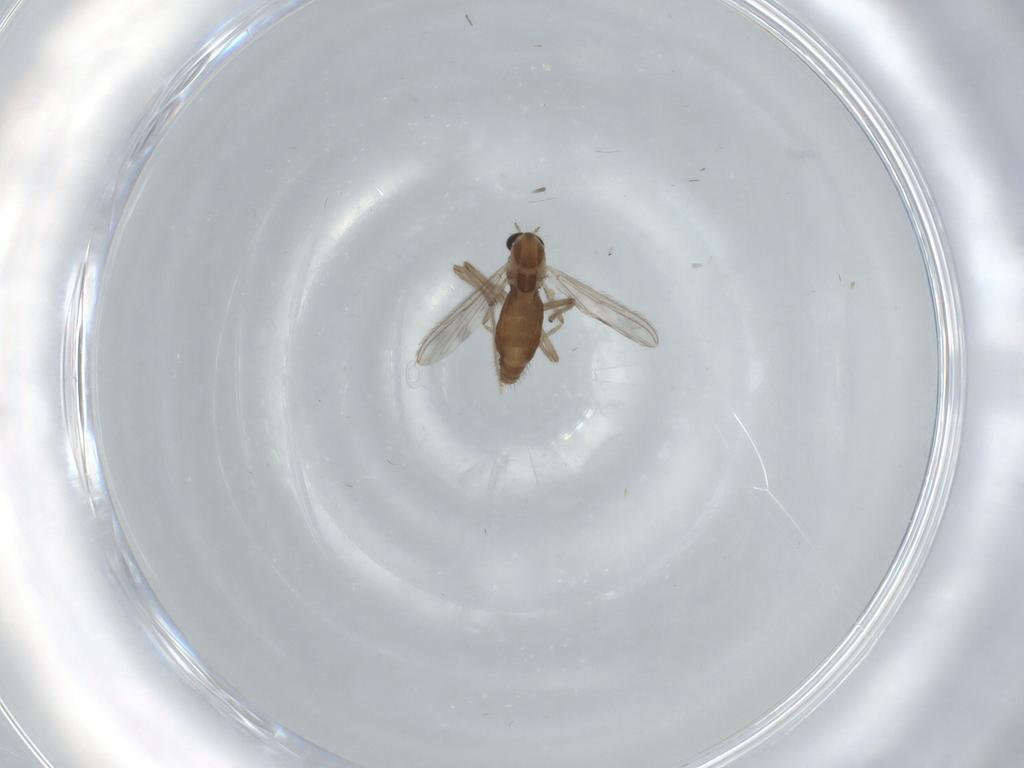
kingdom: Animalia
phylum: Arthropoda
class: Insecta
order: Diptera
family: Chironomidae
